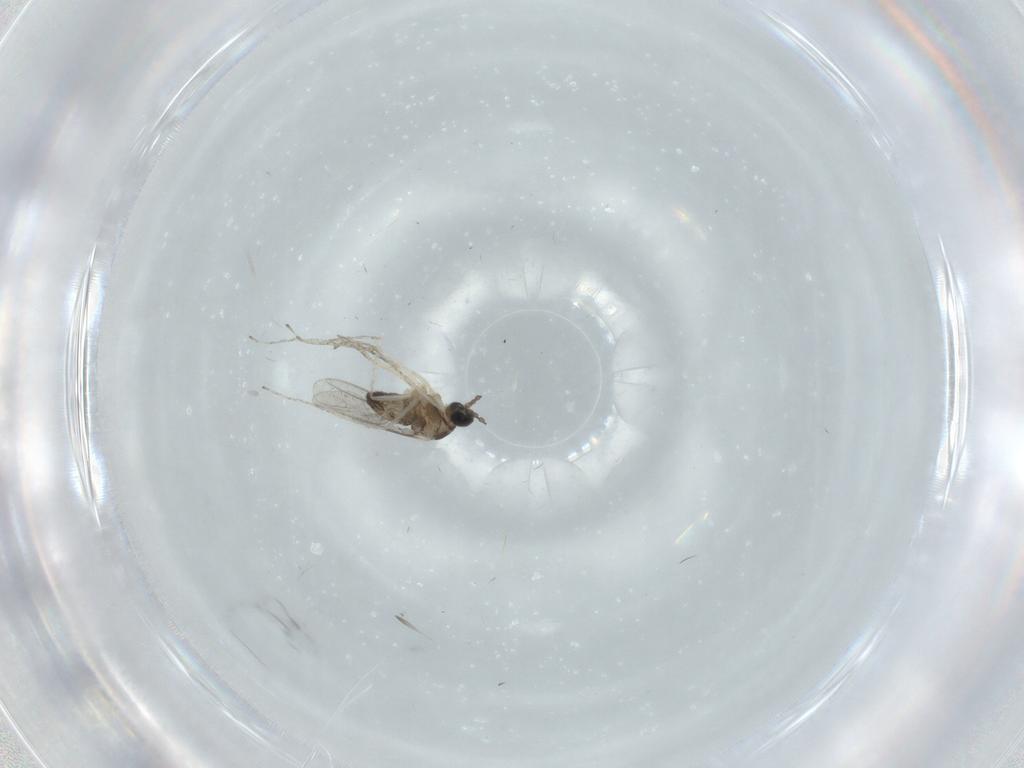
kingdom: Animalia
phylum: Arthropoda
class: Insecta
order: Diptera
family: Cecidomyiidae
